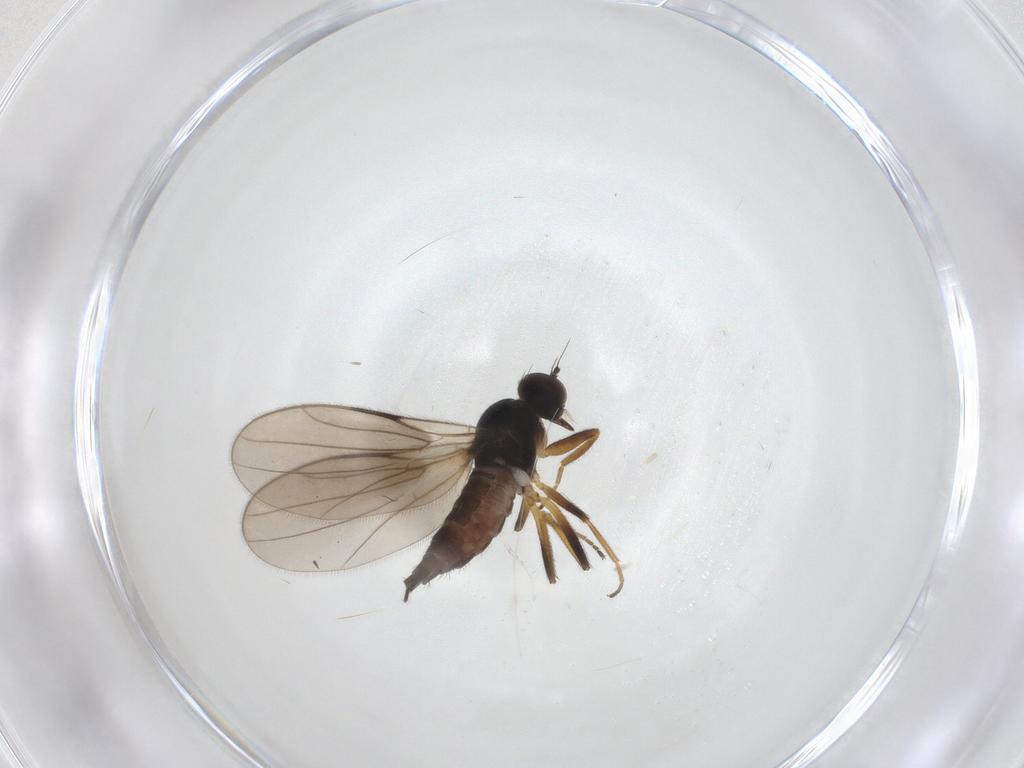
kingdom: Animalia
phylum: Arthropoda
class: Insecta
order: Diptera
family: Hybotidae
